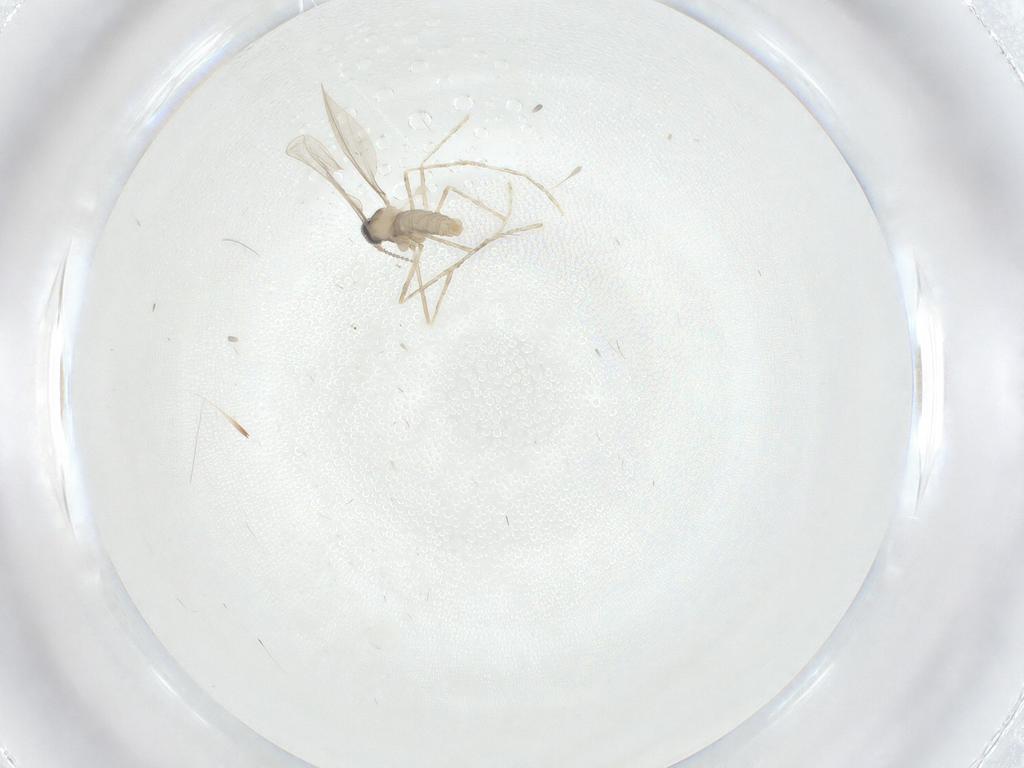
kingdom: Animalia
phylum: Arthropoda
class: Insecta
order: Diptera
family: Cecidomyiidae
